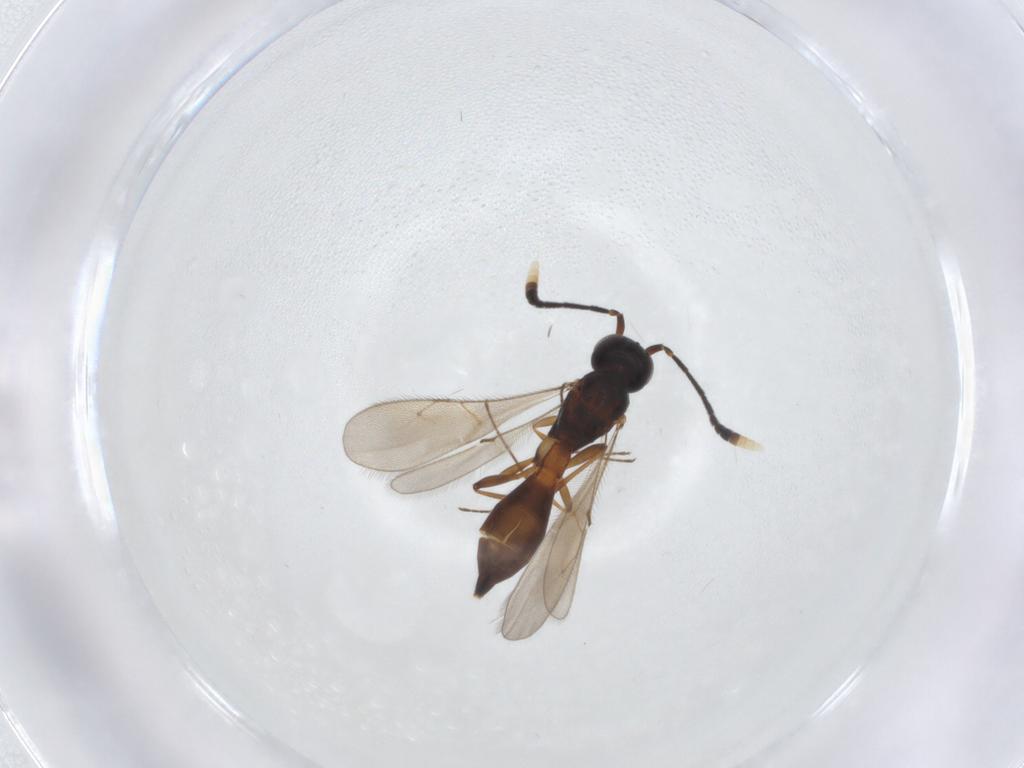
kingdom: Animalia
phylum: Arthropoda
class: Insecta
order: Hymenoptera
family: Scelionidae
